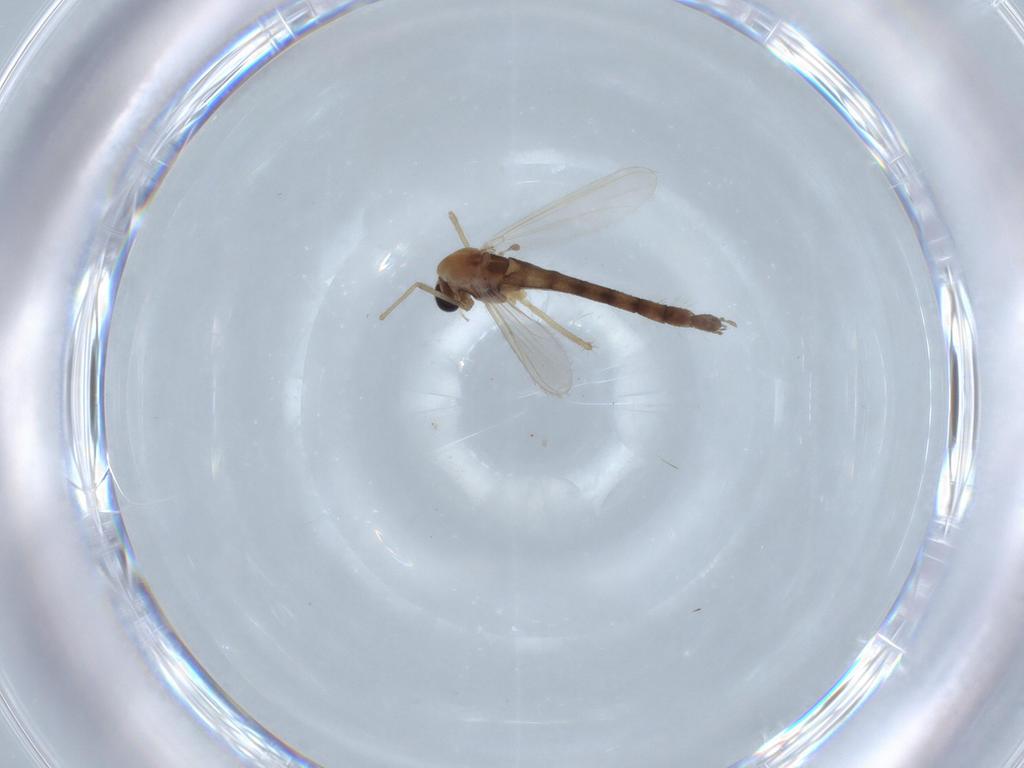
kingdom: Animalia
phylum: Arthropoda
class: Insecta
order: Diptera
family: Chironomidae
